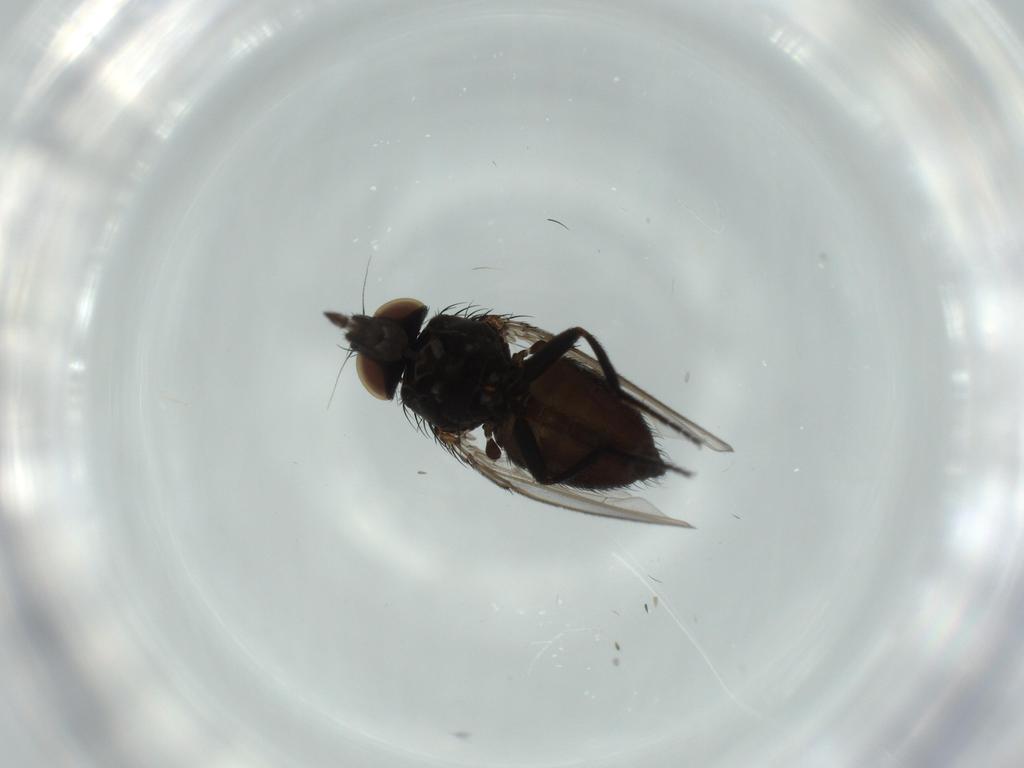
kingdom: Animalia
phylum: Arthropoda
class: Insecta
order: Diptera
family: Milichiidae
